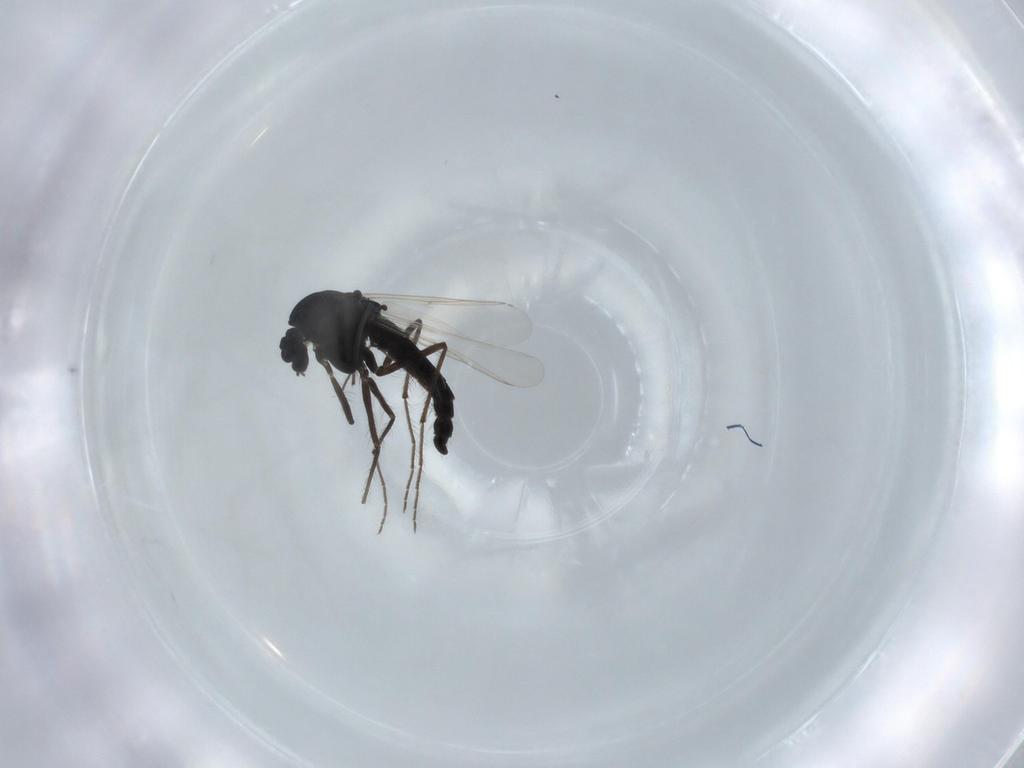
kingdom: Animalia
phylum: Arthropoda
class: Insecta
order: Diptera
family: Chironomidae
